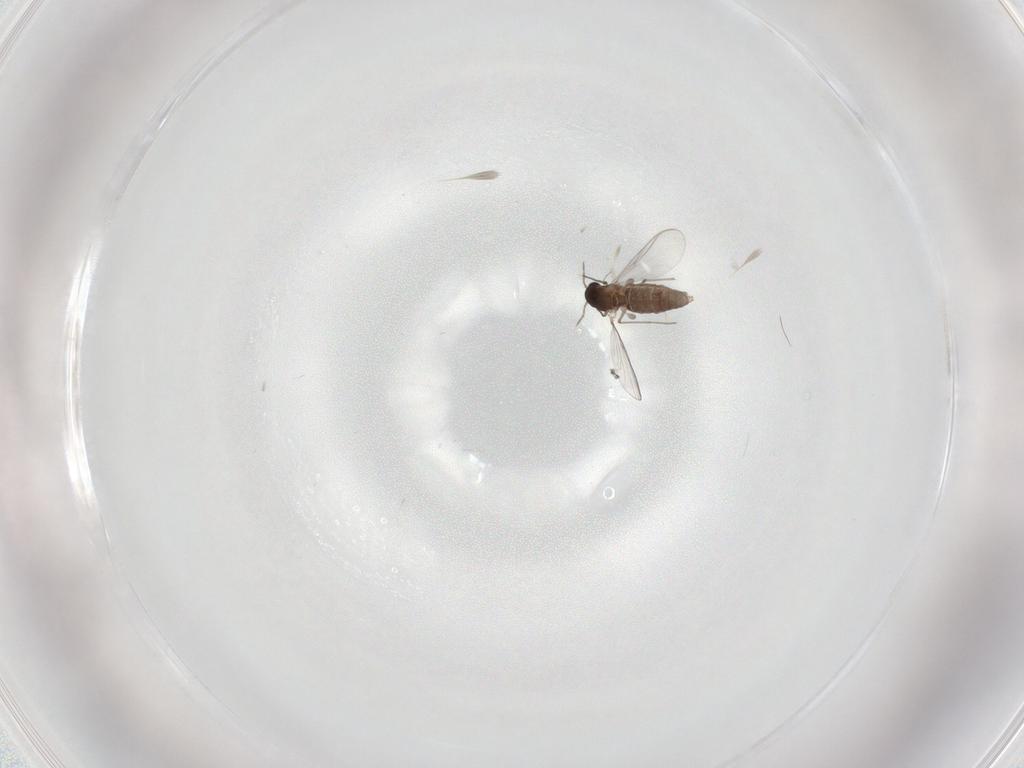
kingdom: Animalia
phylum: Arthropoda
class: Insecta
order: Diptera
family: Chironomidae
